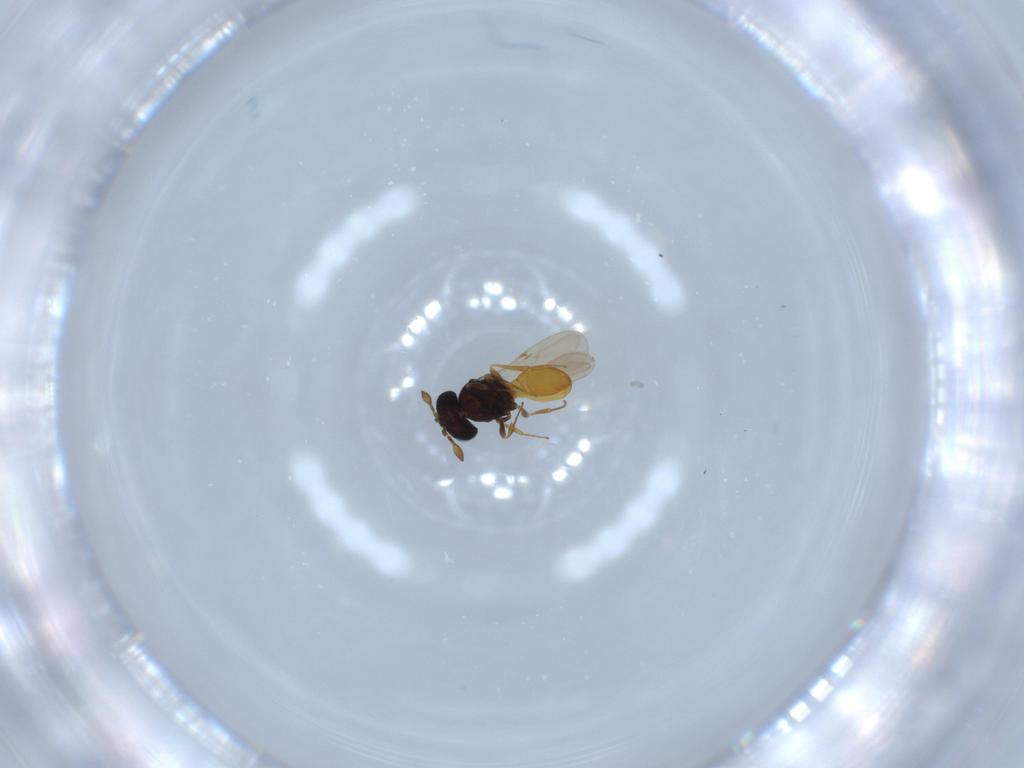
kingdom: Animalia
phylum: Arthropoda
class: Insecta
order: Hymenoptera
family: Scelionidae
